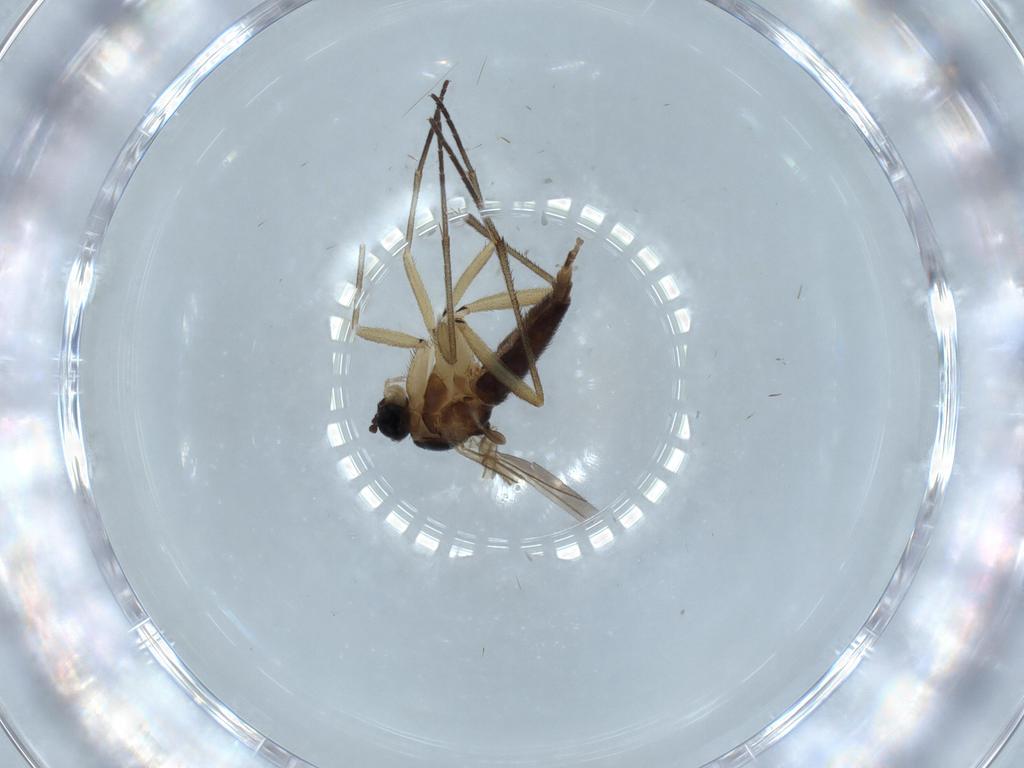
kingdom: Animalia
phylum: Arthropoda
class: Insecta
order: Diptera
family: Sciaridae
